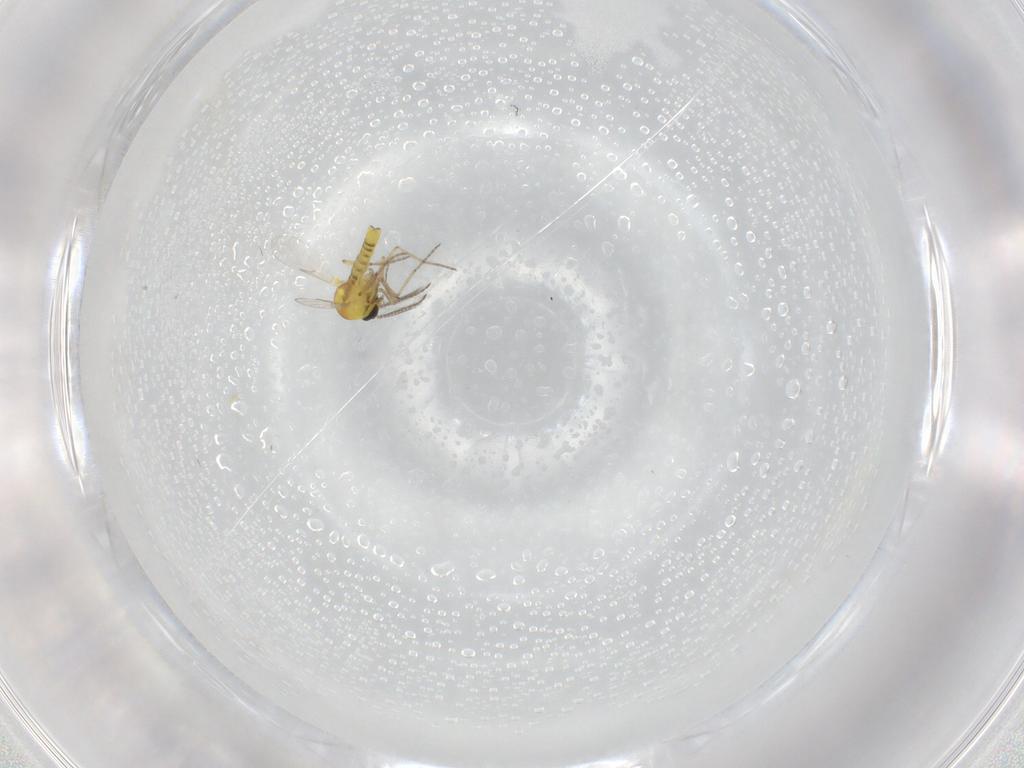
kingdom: Animalia
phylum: Arthropoda
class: Insecta
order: Diptera
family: Ceratopogonidae
